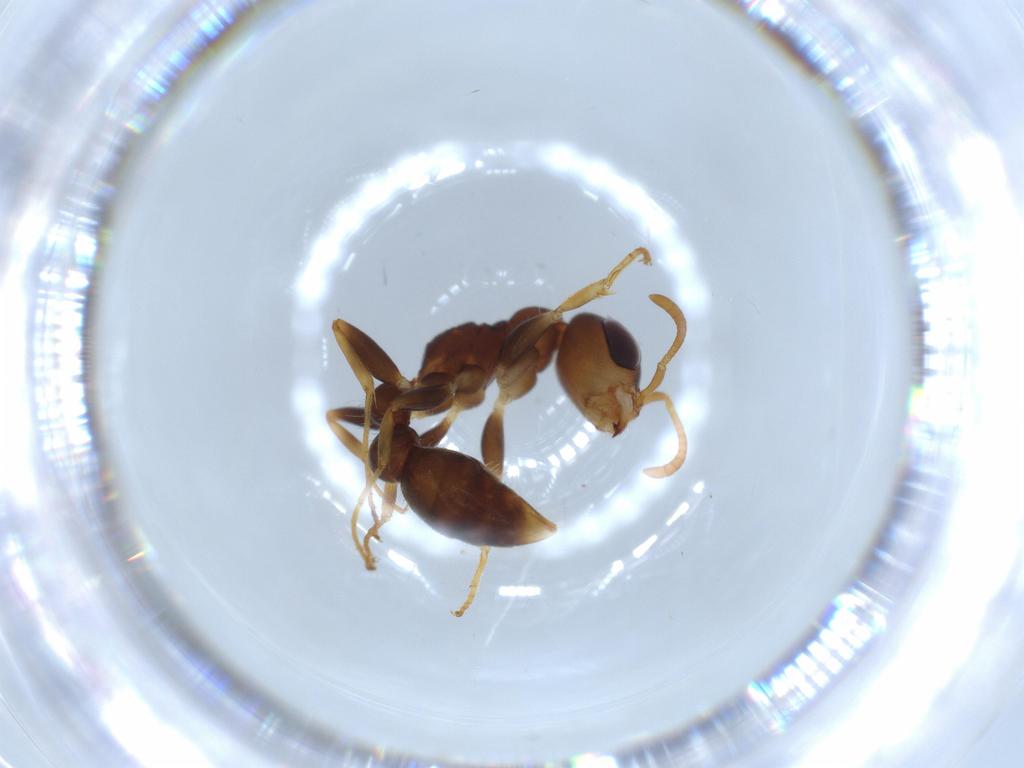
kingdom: Animalia
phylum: Arthropoda
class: Insecta
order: Hymenoptera
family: Formicidae
